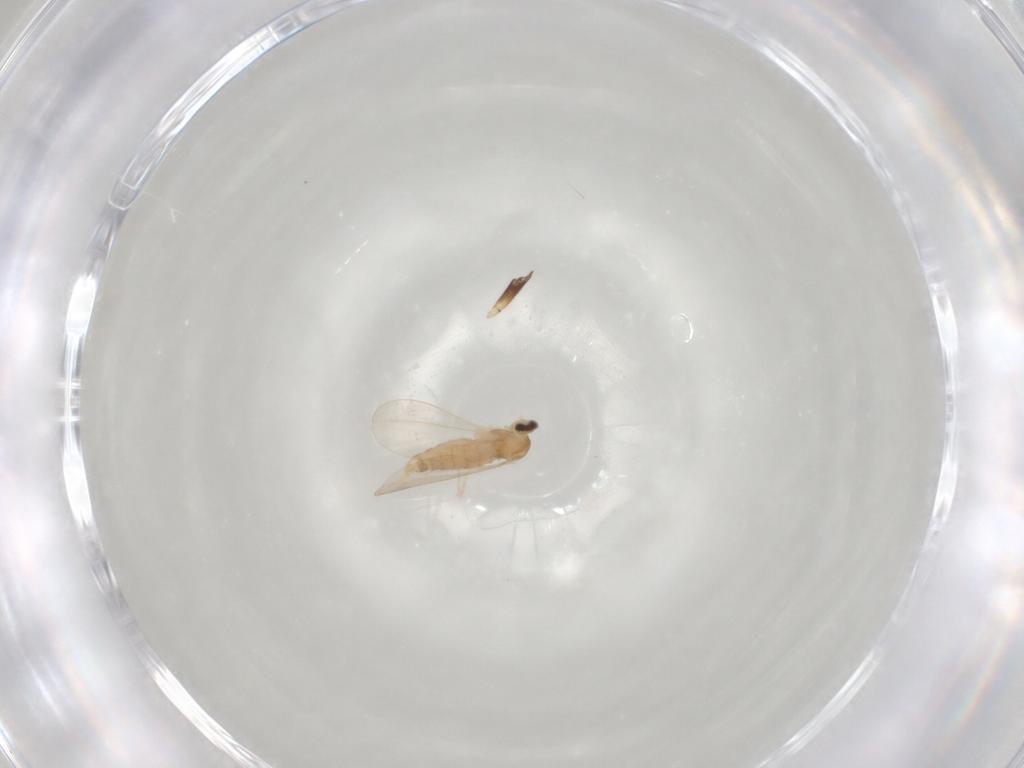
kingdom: Animalia
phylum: Arthropoda
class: Insecta
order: Diptera
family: Cecidomyiidae
